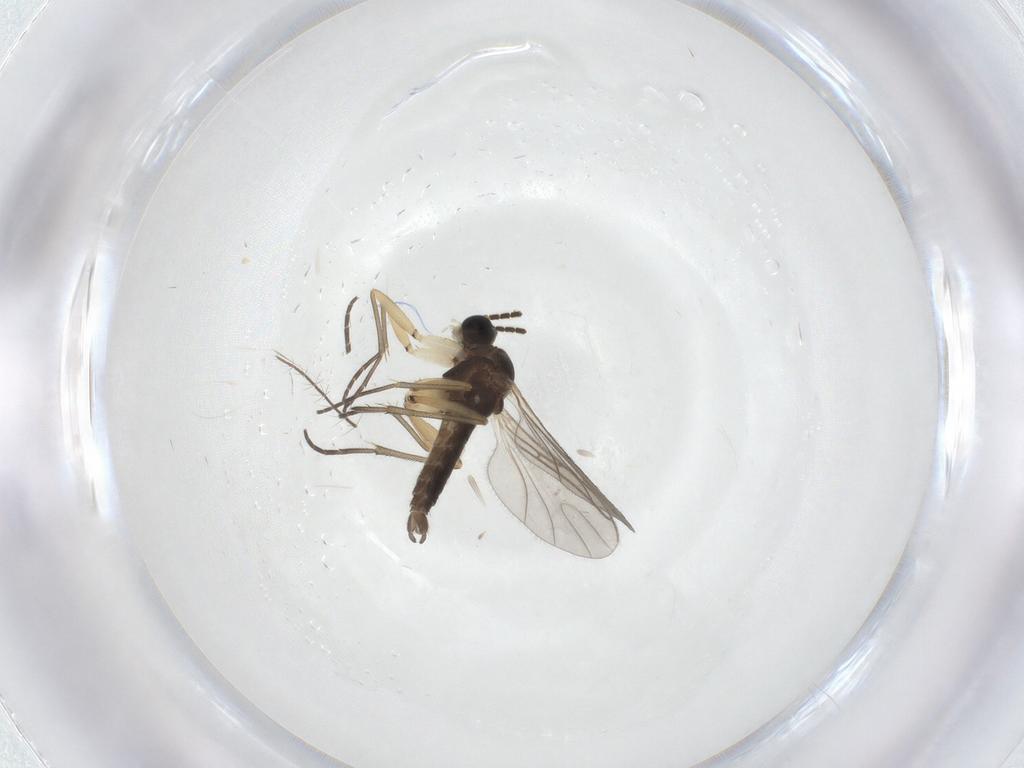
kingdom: Animalia
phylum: Arthropoda
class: Insecta
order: Diptera
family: Sciaridae
